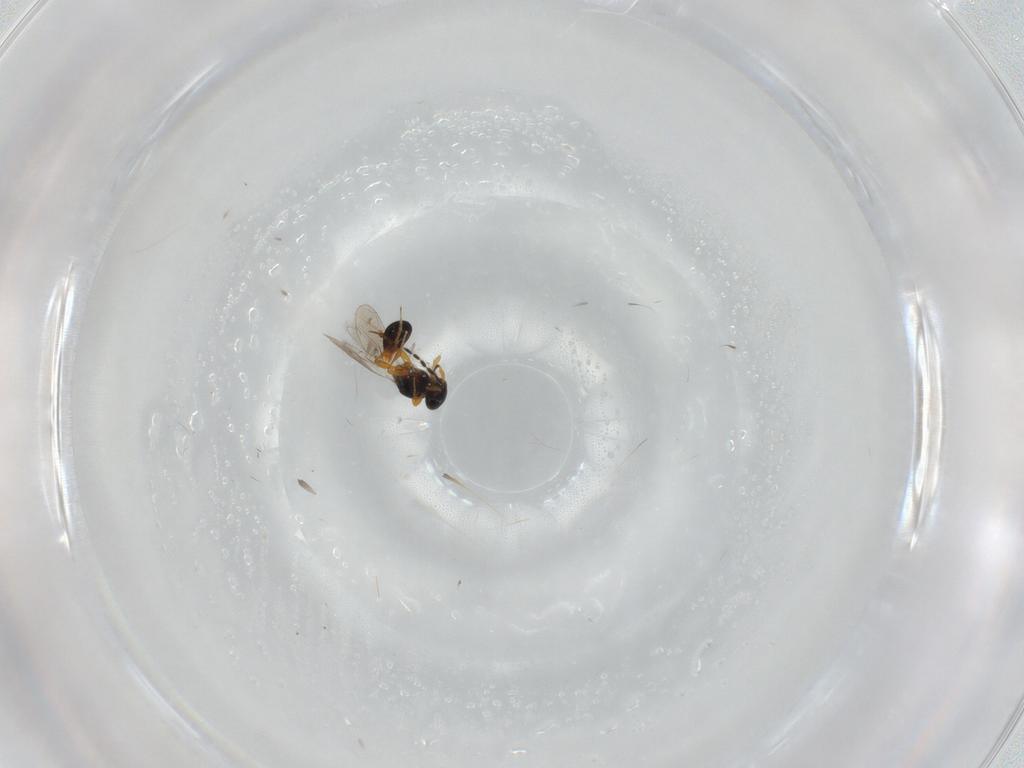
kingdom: Animalia
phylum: Arthropoda
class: Insecta
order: Hymenoptera
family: Platygastridae
